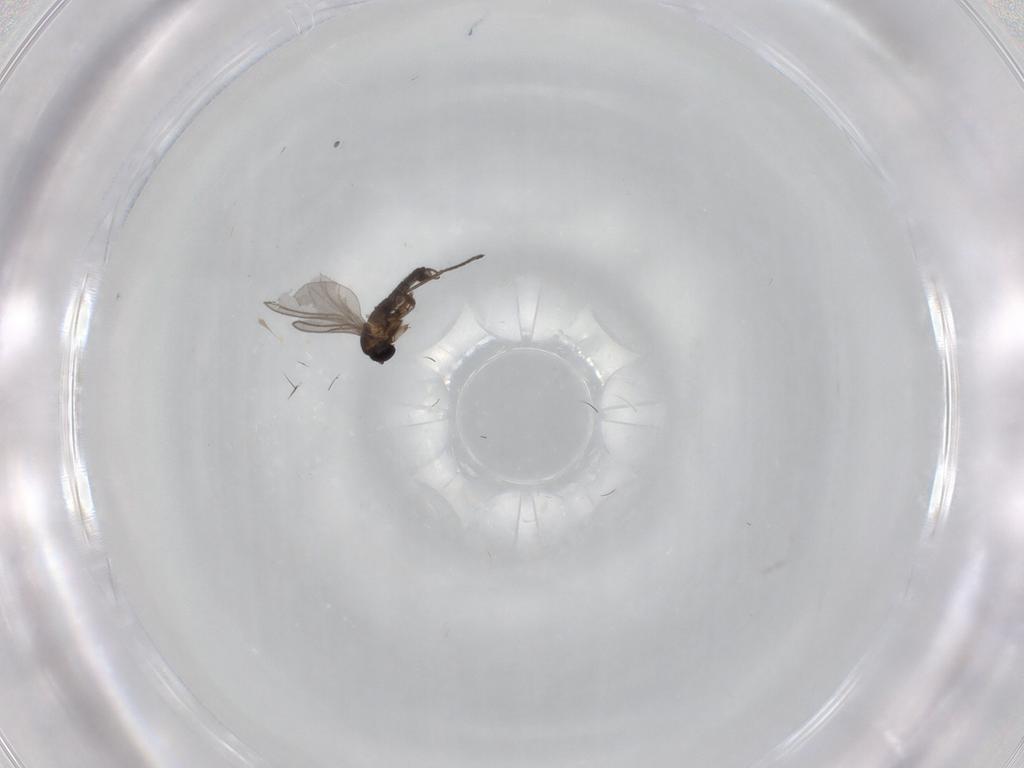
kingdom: Animalia
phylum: Arthropoda
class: Insecta
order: Diptera
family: Sciaridae
